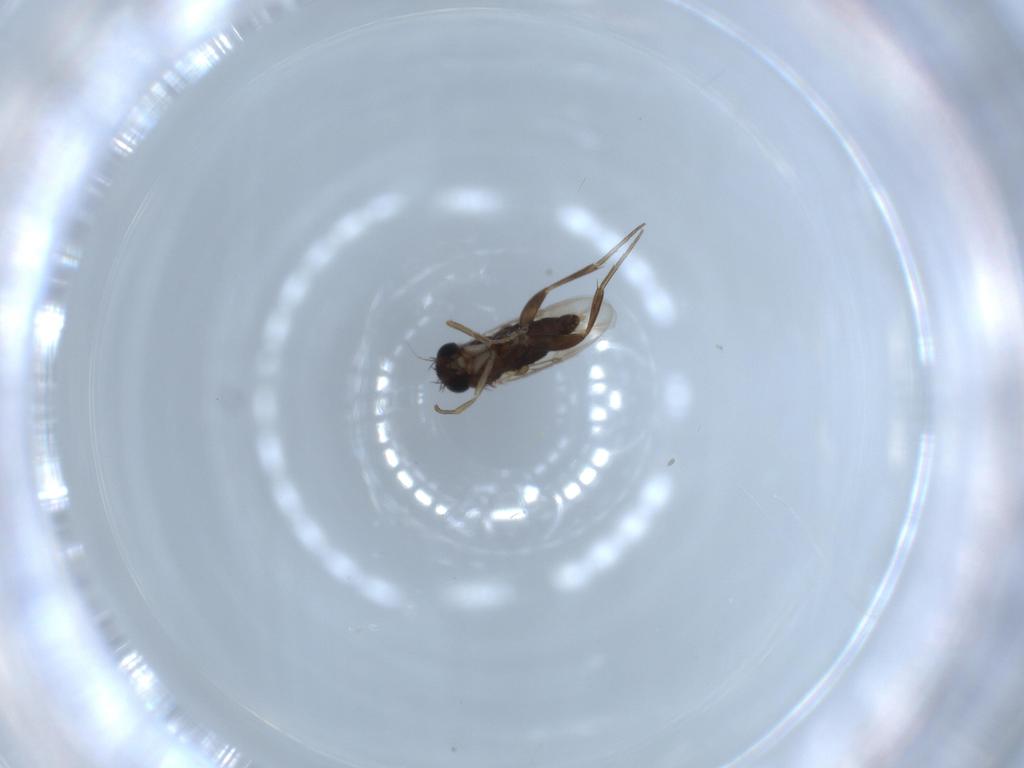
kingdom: Animalia
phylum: Arthropoda
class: Insecta
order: Diptera
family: Phoridae
